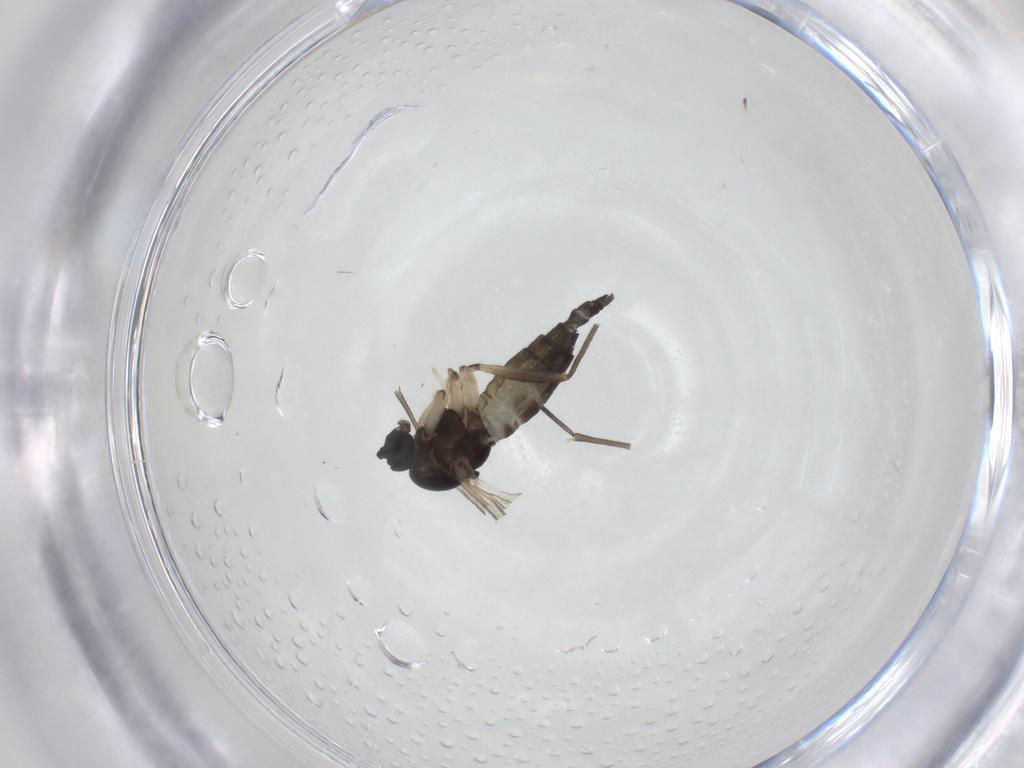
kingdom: Animalia
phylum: Arthropoda
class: Insecta
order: Diptera
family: Sciaridae
